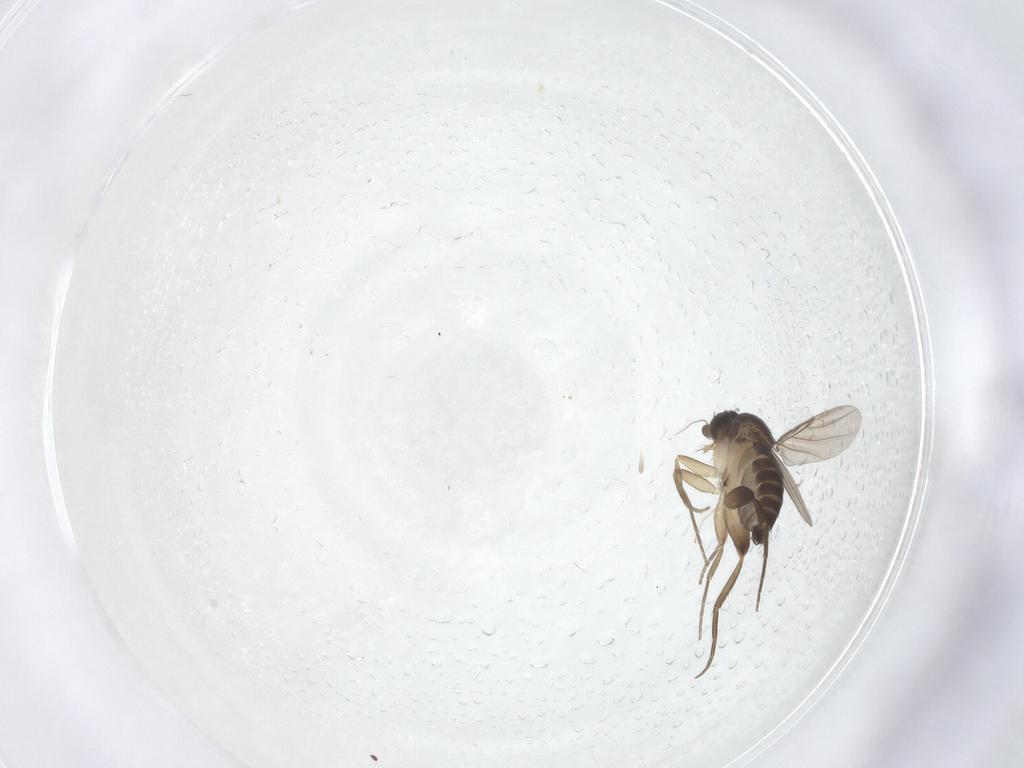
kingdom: Animalia
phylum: Arthropoda
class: Insecta
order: Diptera
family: Phoridae
